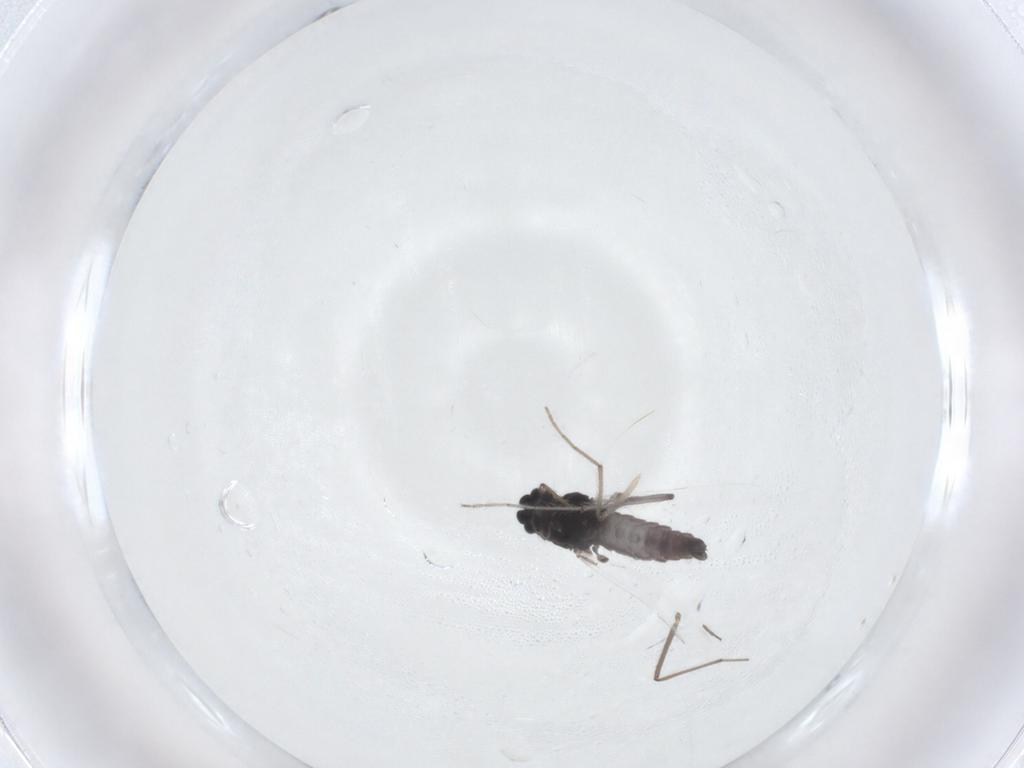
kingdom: Animalia
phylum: Arthropoda
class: Insecta
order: Diptera
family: Chironomidae
